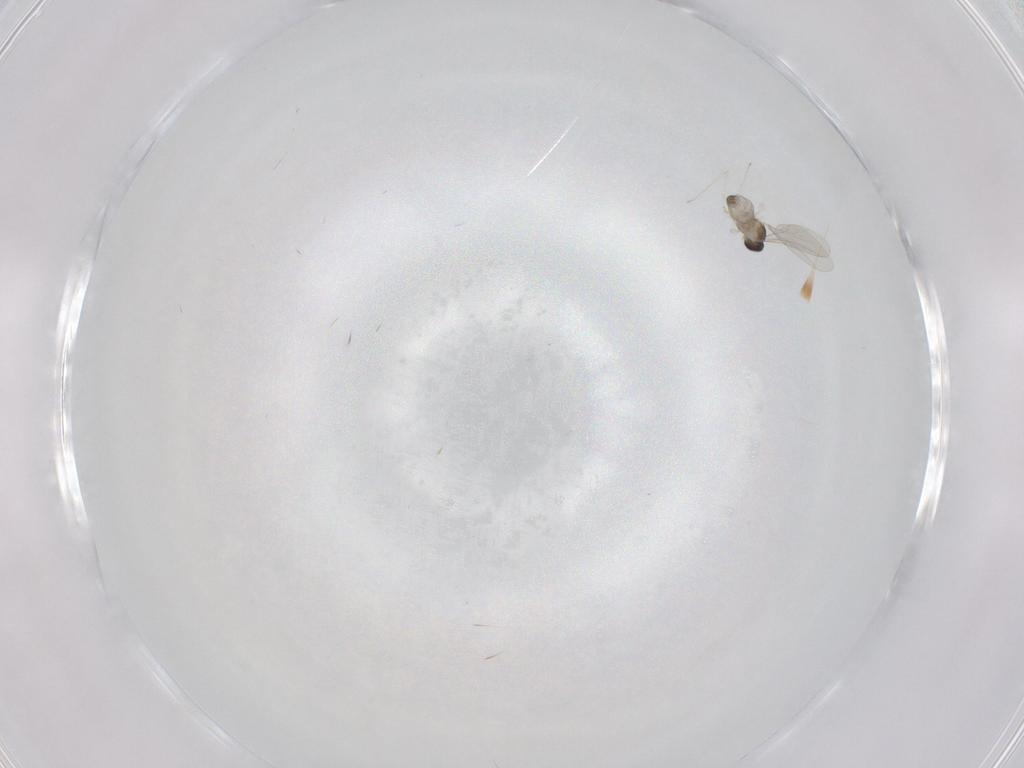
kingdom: Animalia
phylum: Arthropoda
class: Insecta
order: Diptera
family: Cecidomyiidae
